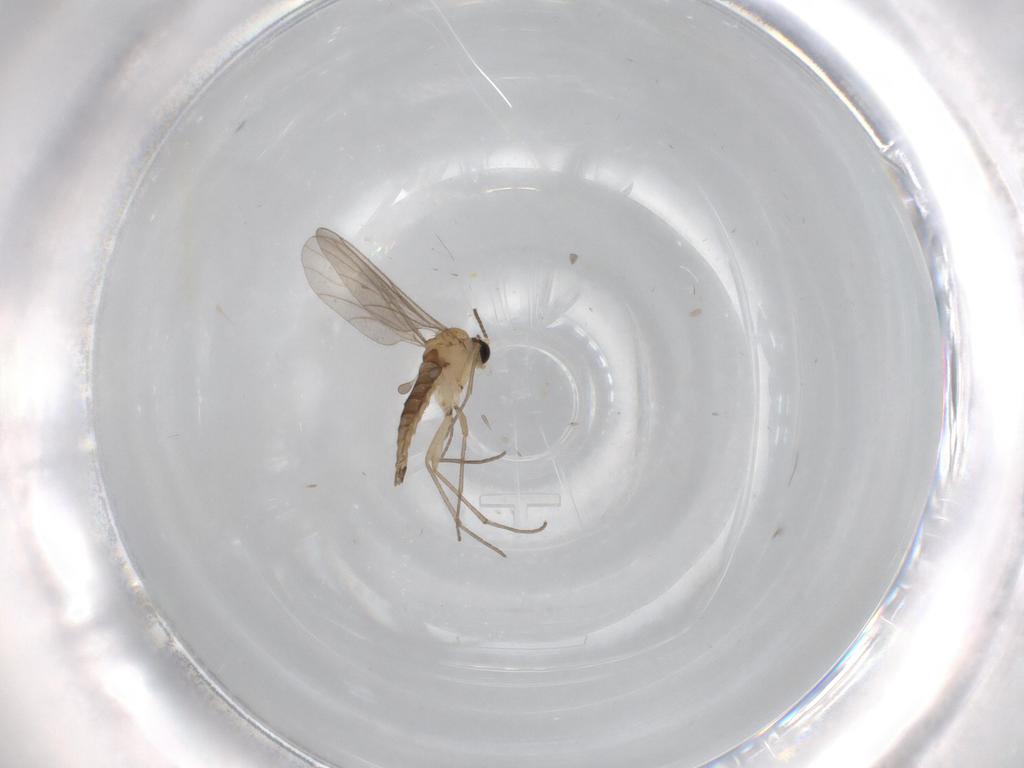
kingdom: Animalia
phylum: Arthropoda
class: Insecta
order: Diptera
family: Sciaridae
